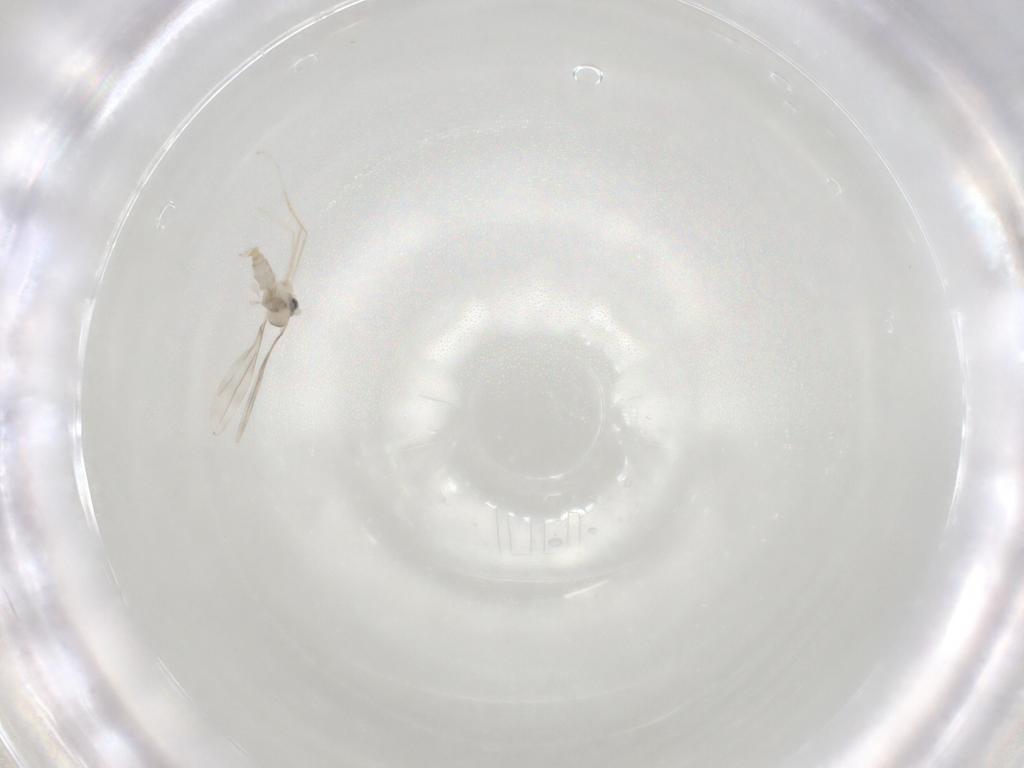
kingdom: Animalia
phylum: Arthropoda
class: Insecta
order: Diptera
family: Cecidomyiidae
